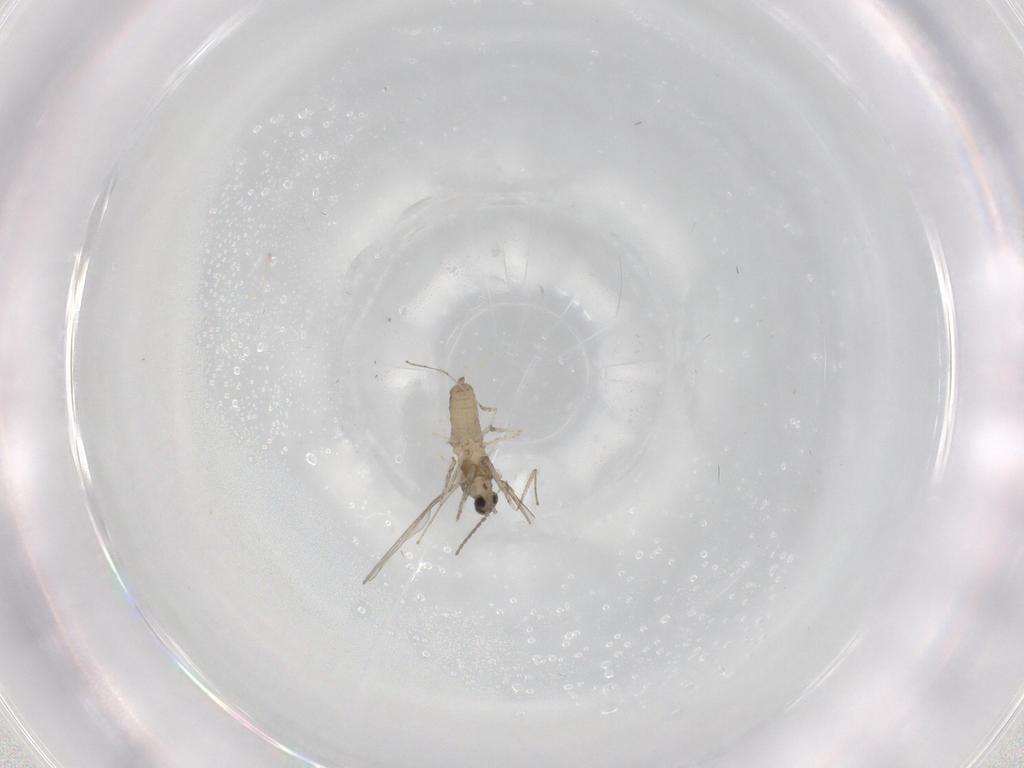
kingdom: Animalia
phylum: Arthropoda
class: Insecta
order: Diptera
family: Cecidomyiidae
